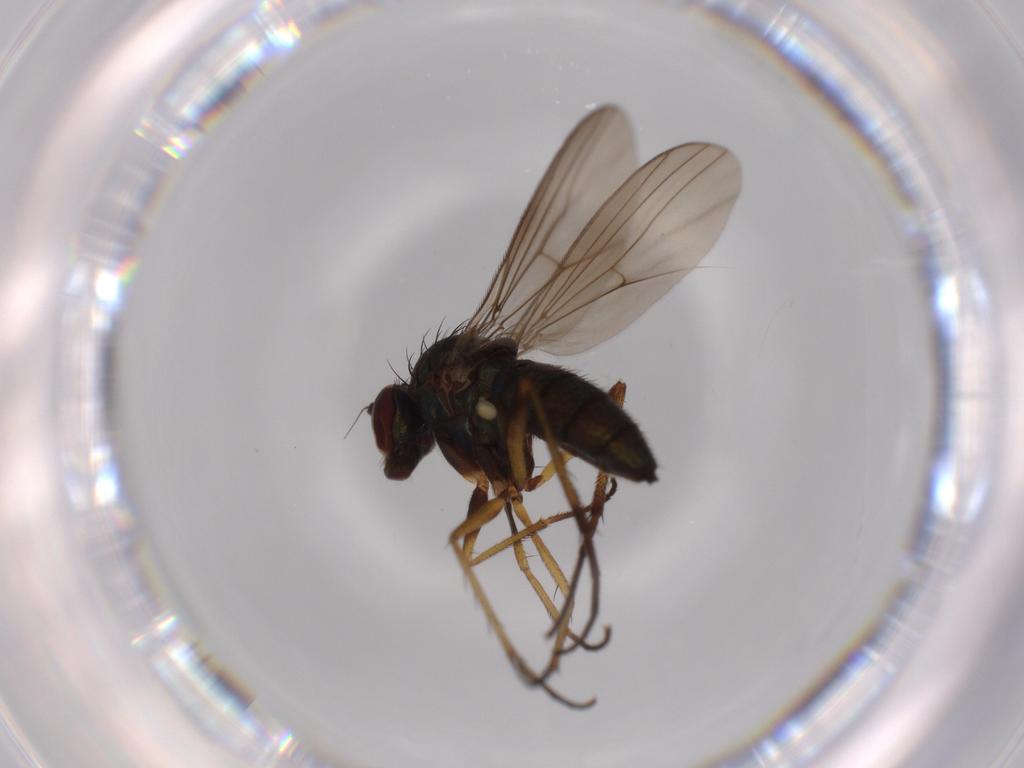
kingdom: Animalia
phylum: Arthropoda
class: Insecta
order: Diptera
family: Dolichopodidae
